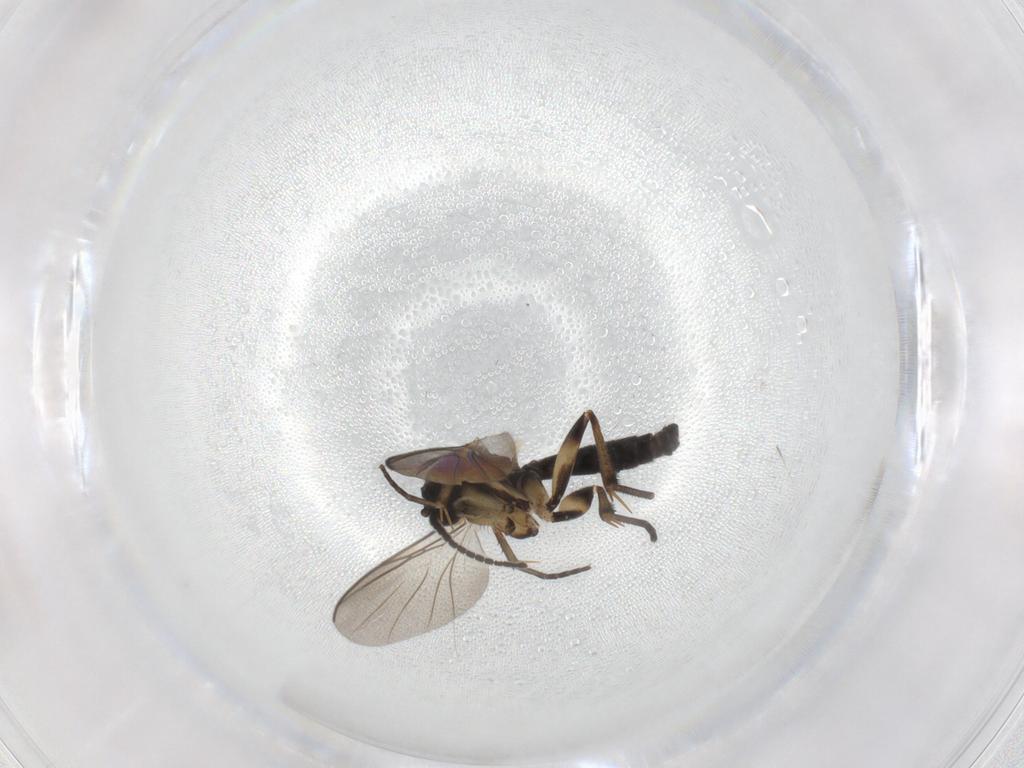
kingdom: Animalia
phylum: Arthropoda
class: Insecta
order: Diptera
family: Mycetophilidae
